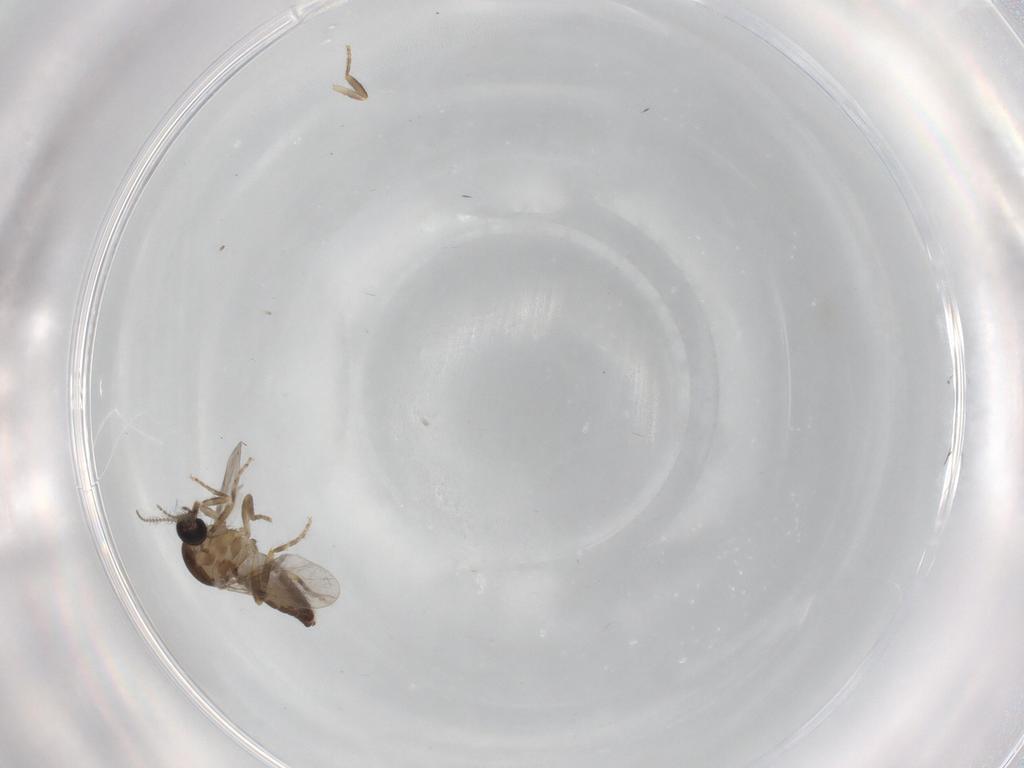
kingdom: Animalia
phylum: Arthropoda
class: Insecta
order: Diptera
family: Ceratopogonidae
